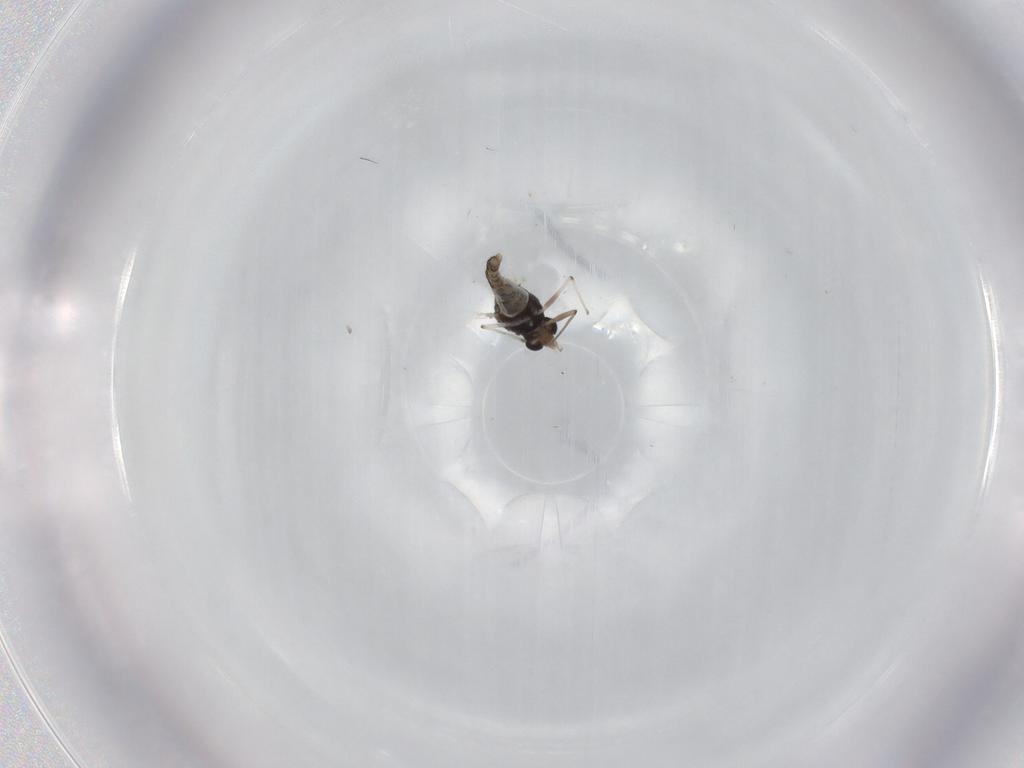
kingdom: Animalia
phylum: Arthropoda
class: Insecta
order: Diptera
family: Chironomidae
